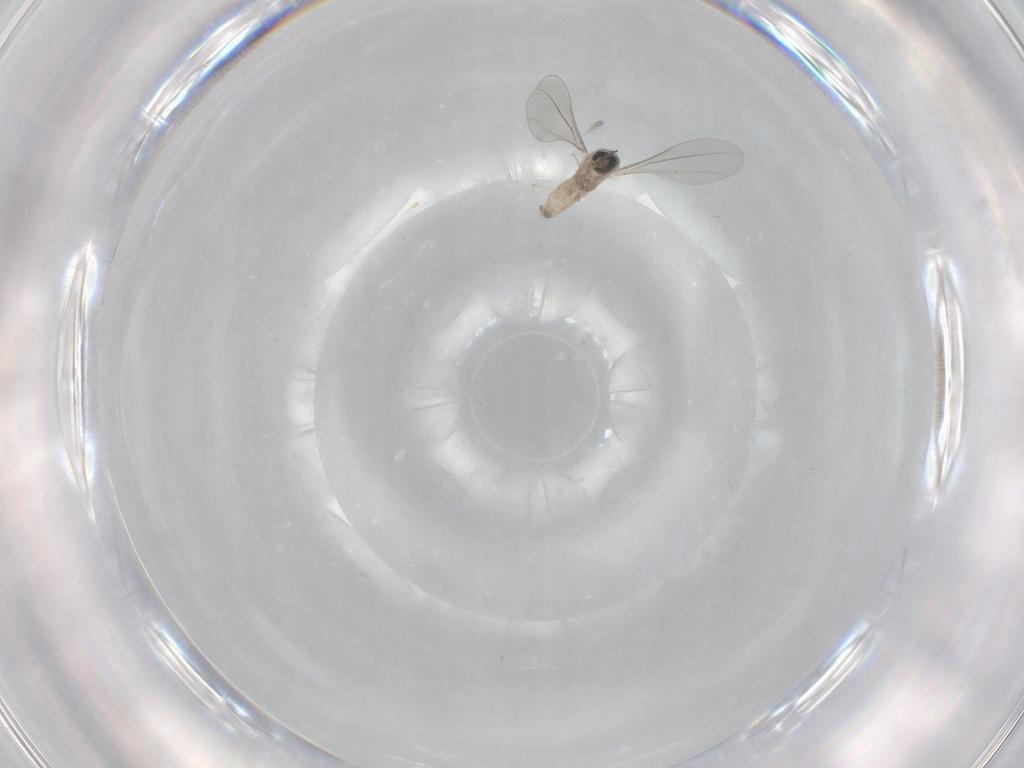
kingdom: Animalia
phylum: Arthropoda
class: Insecta
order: Diptera
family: Cecidomyiidae
